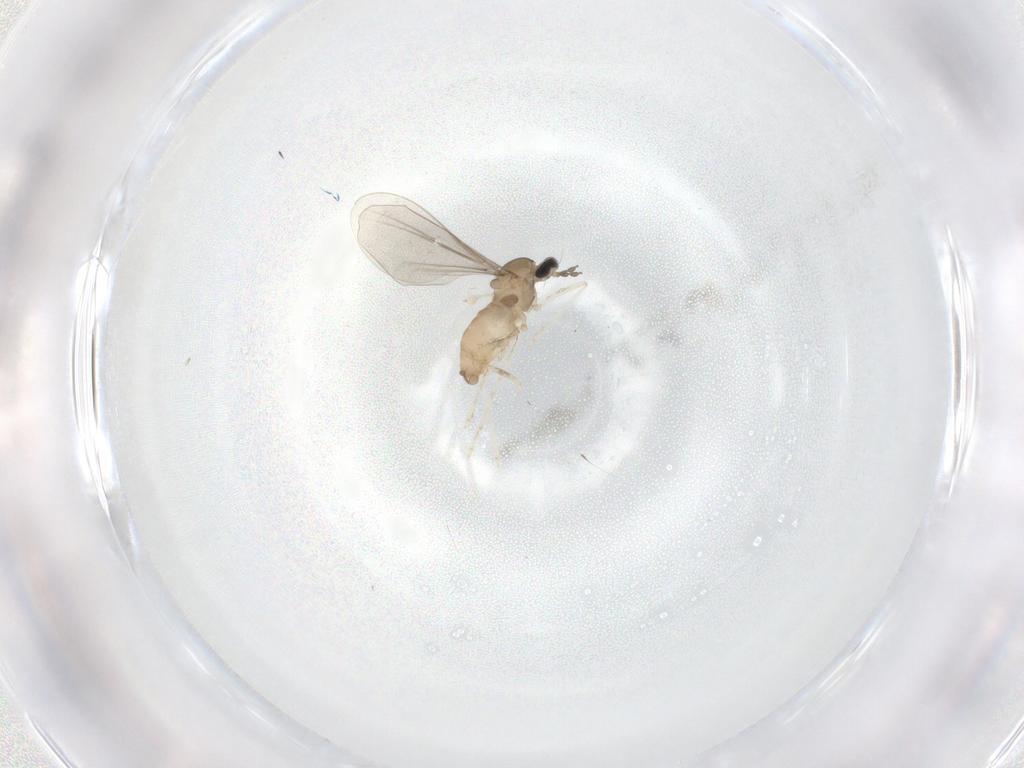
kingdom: Animalia
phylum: Arthropoda
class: Insecta
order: Diptera
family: Cecidomyiidae
